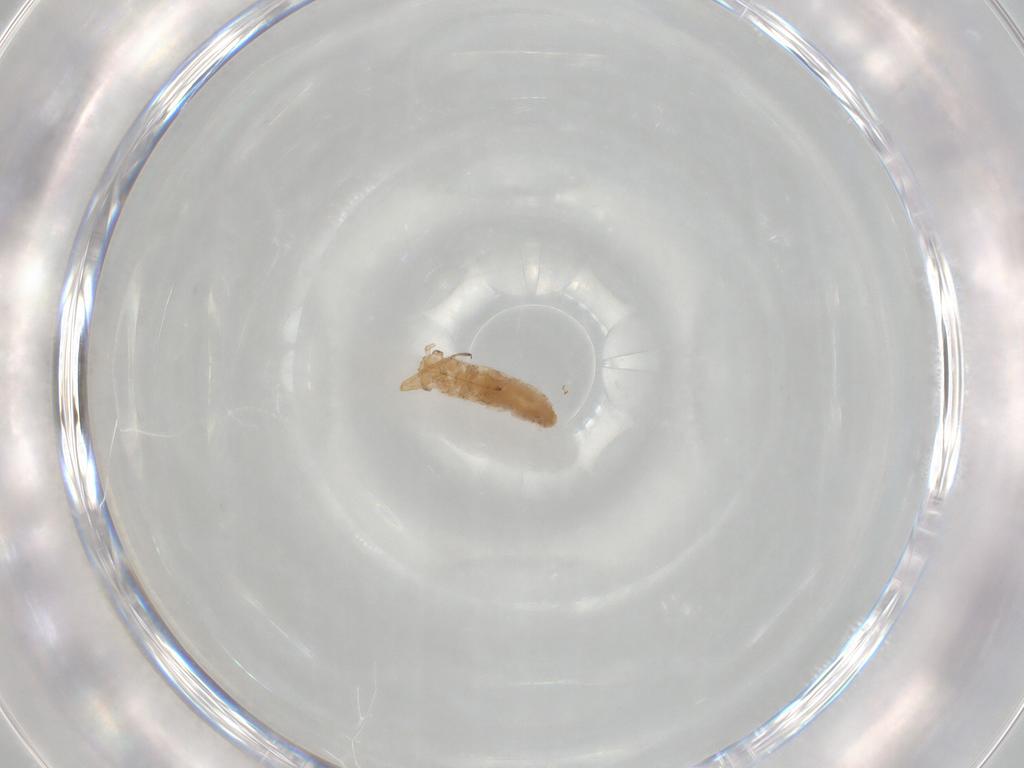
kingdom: Animalia
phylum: Arthropoda
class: Insecta
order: Hemiptera
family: Aphididae
